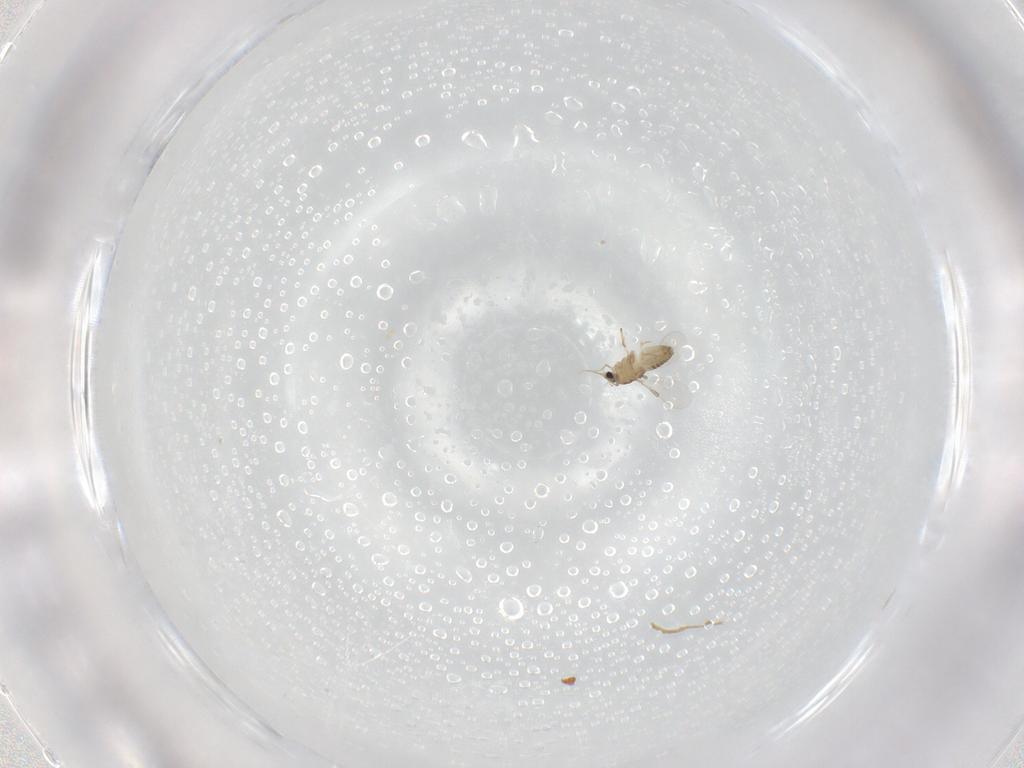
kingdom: Animalia
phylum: Arthropoda
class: Insecta
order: Diptera
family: Chironomidae
